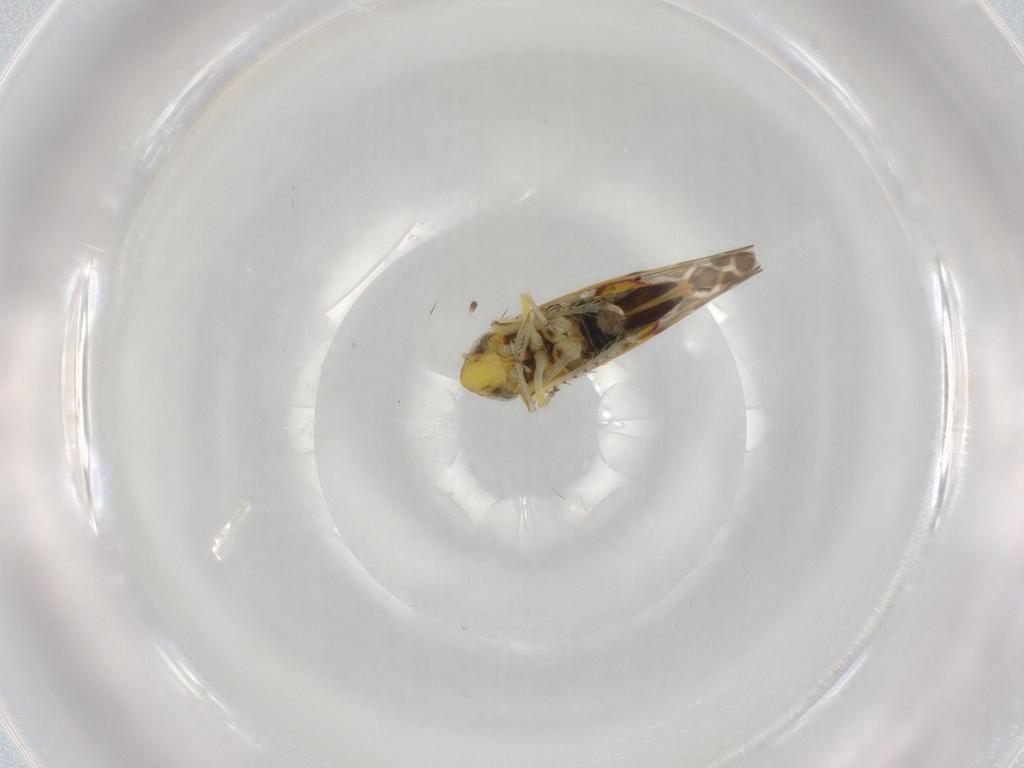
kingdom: Animalia
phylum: Arthropoda
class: Insecta
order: Hemiptera
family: Cicadellidae
